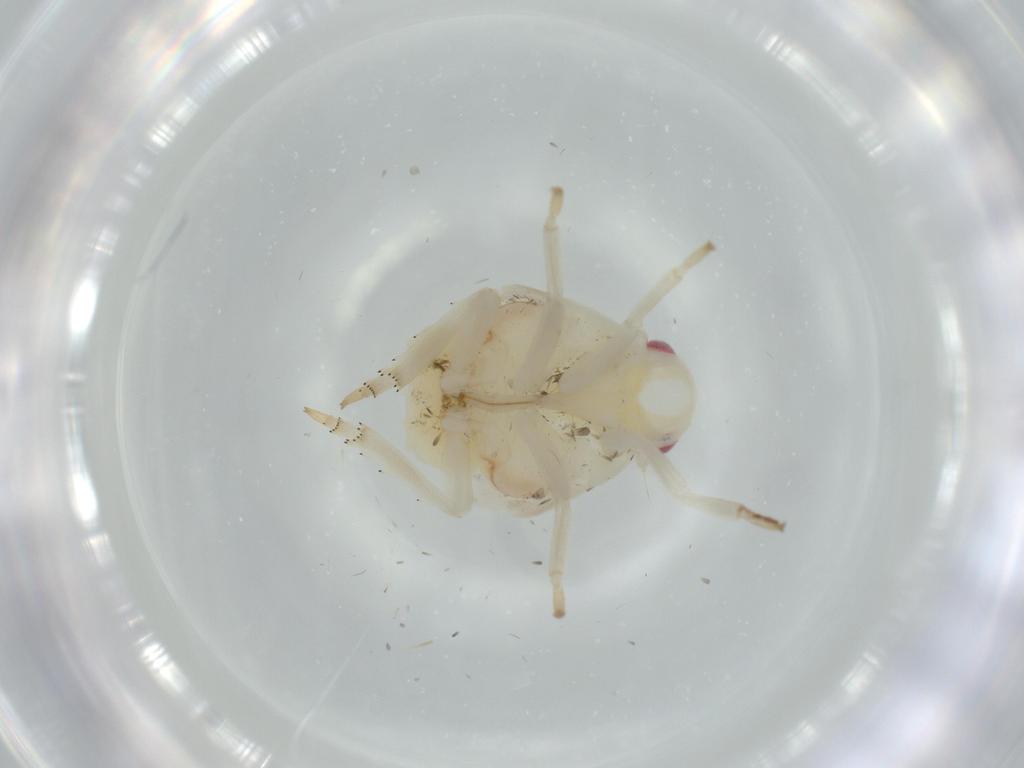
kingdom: Animalia
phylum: Arthropoda
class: Insecta
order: Hemiptera
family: Flatidae
